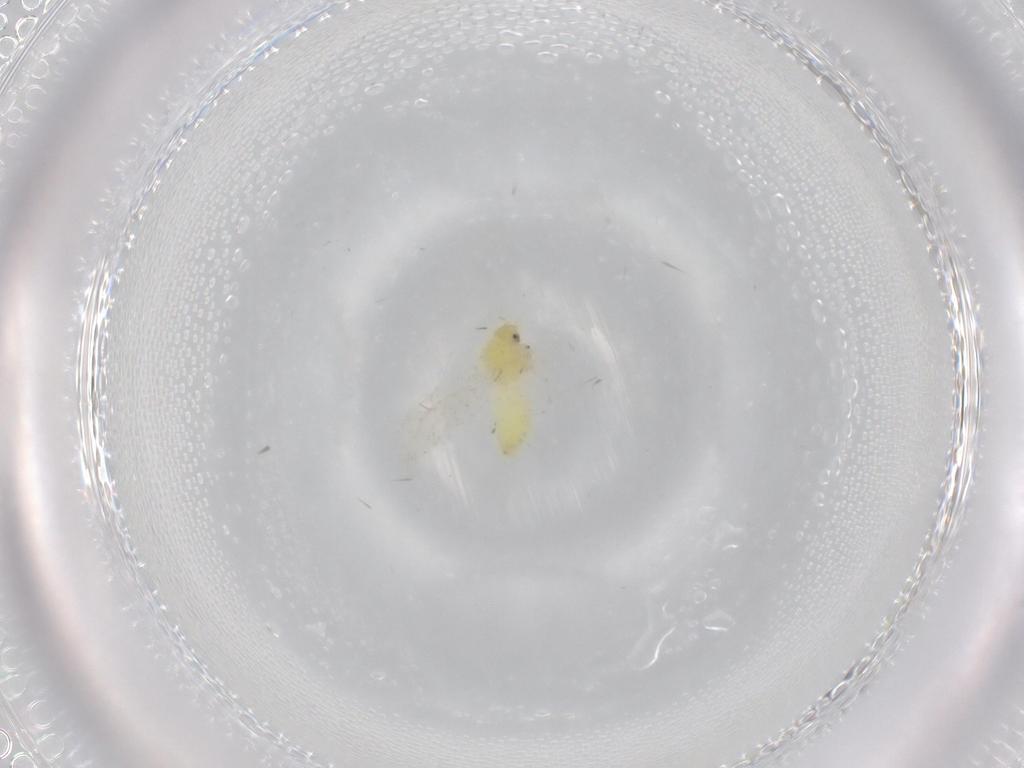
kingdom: Animalia
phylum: Arthropoda
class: Insecta
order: Hemiptera
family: Aleyrodidae
